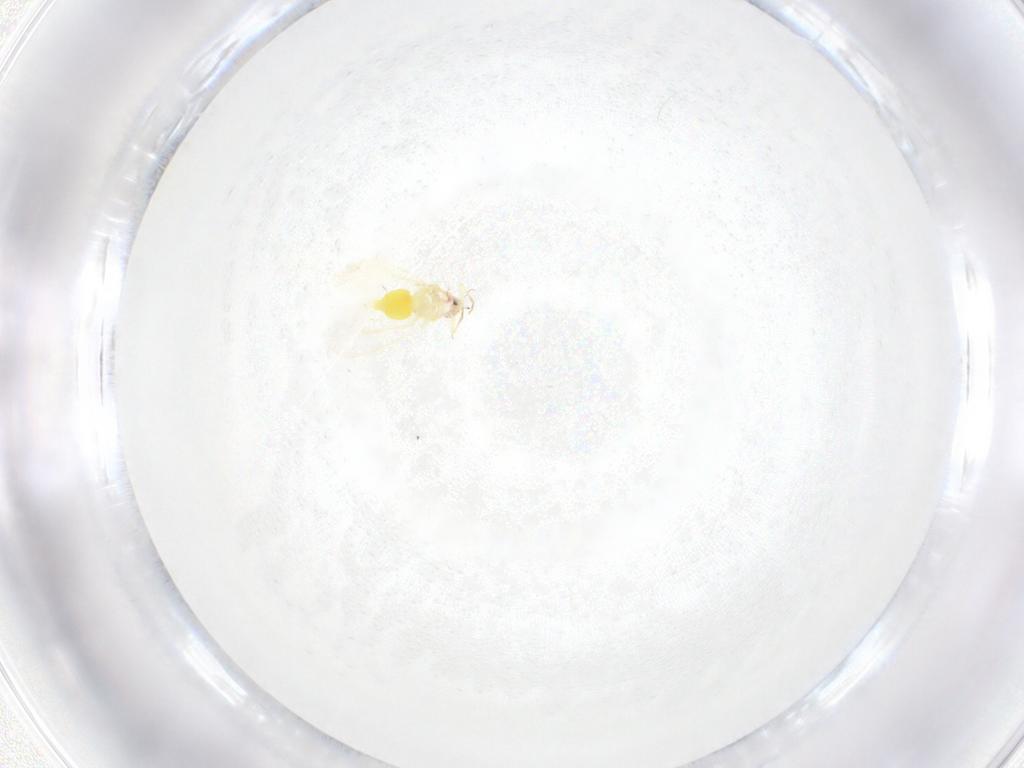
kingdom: Animalia
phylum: Arthropoda
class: Insecta
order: Hemiptera
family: Aleyrodidae
